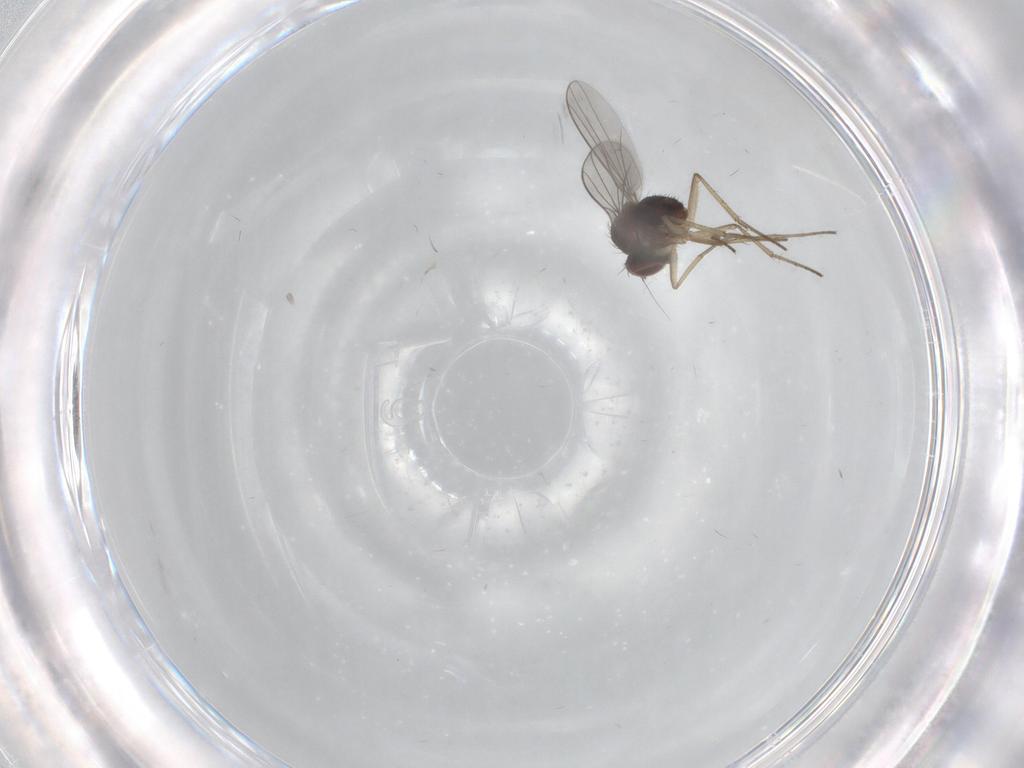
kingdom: Animalia
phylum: Arthropoda
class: Insecta
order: Diptera
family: Dolichopodidae
